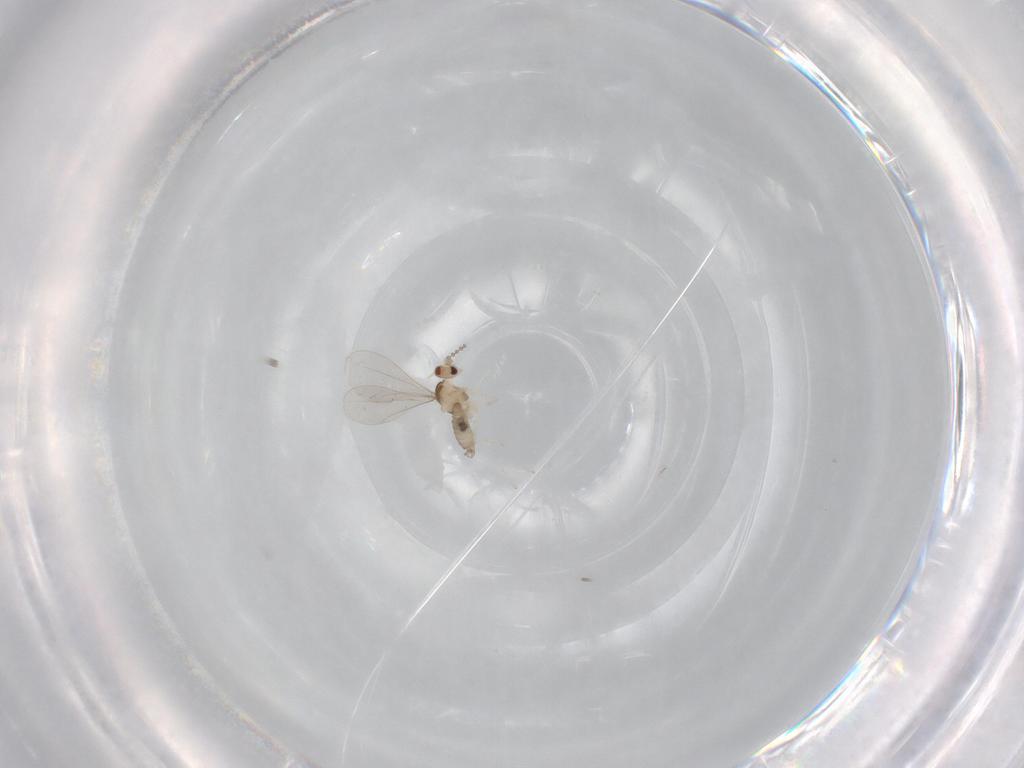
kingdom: Animalia
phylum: Arthropoda
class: Insecta
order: Diptera
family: Cecidomyiidae
